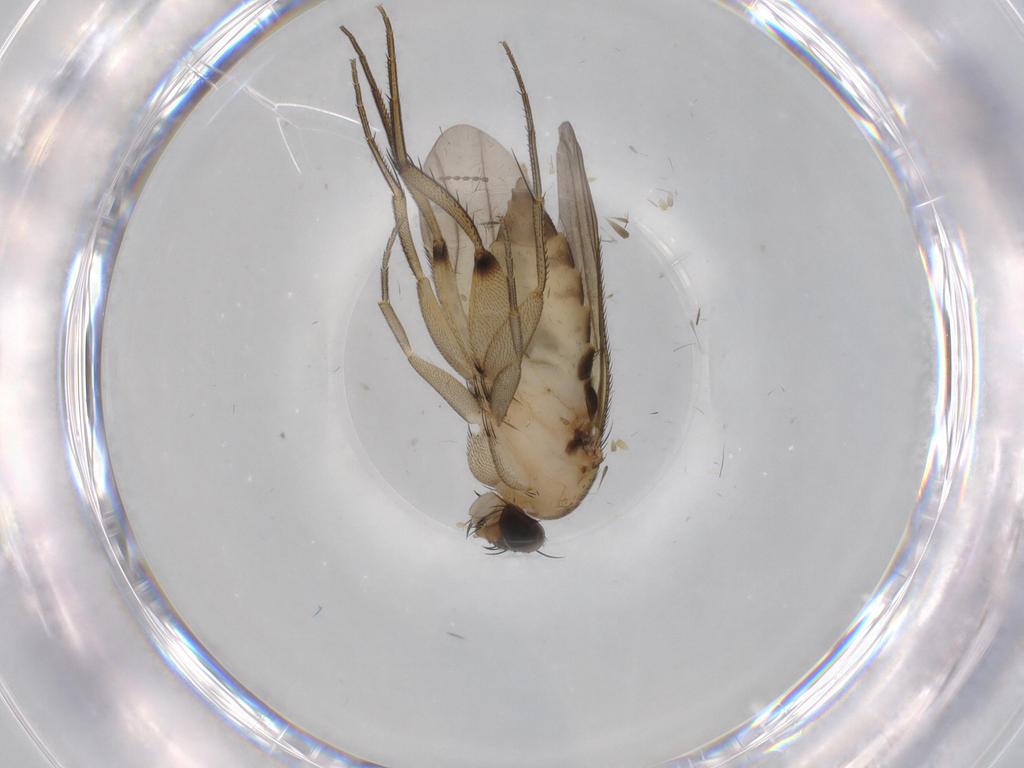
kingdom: Animalia
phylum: Arthropoda
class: Insecta
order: Diptera
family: Phoridae
